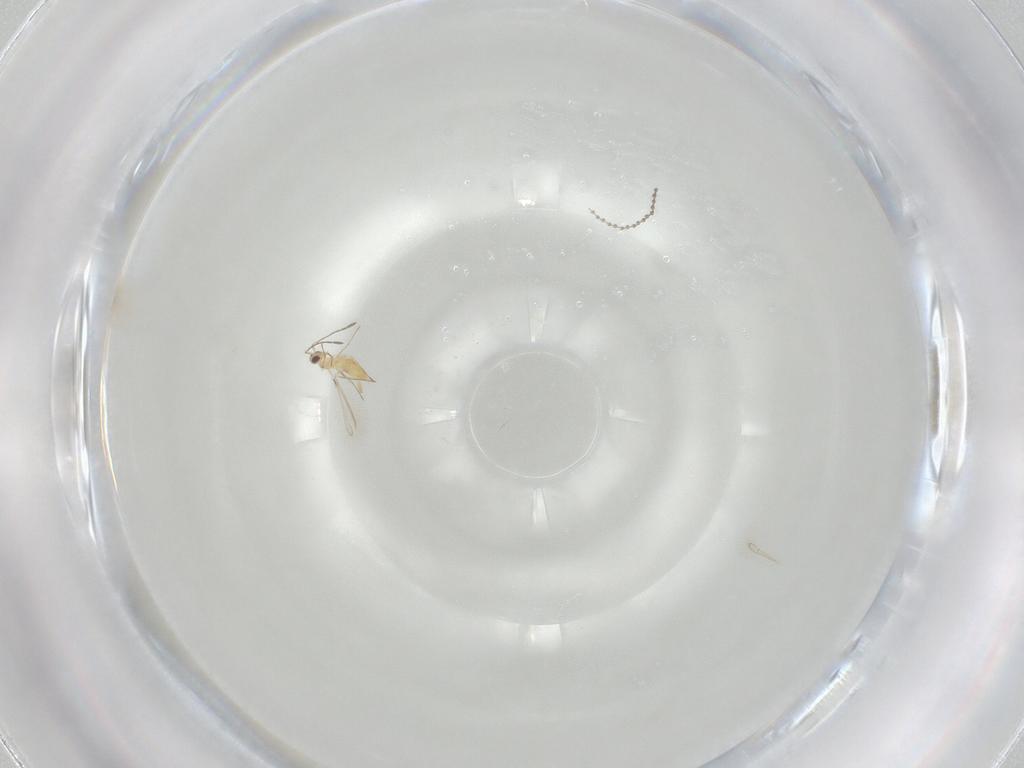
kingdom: Animalia
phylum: Arthropoda
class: Insecta
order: Hymenoptera
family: Mymaridae
